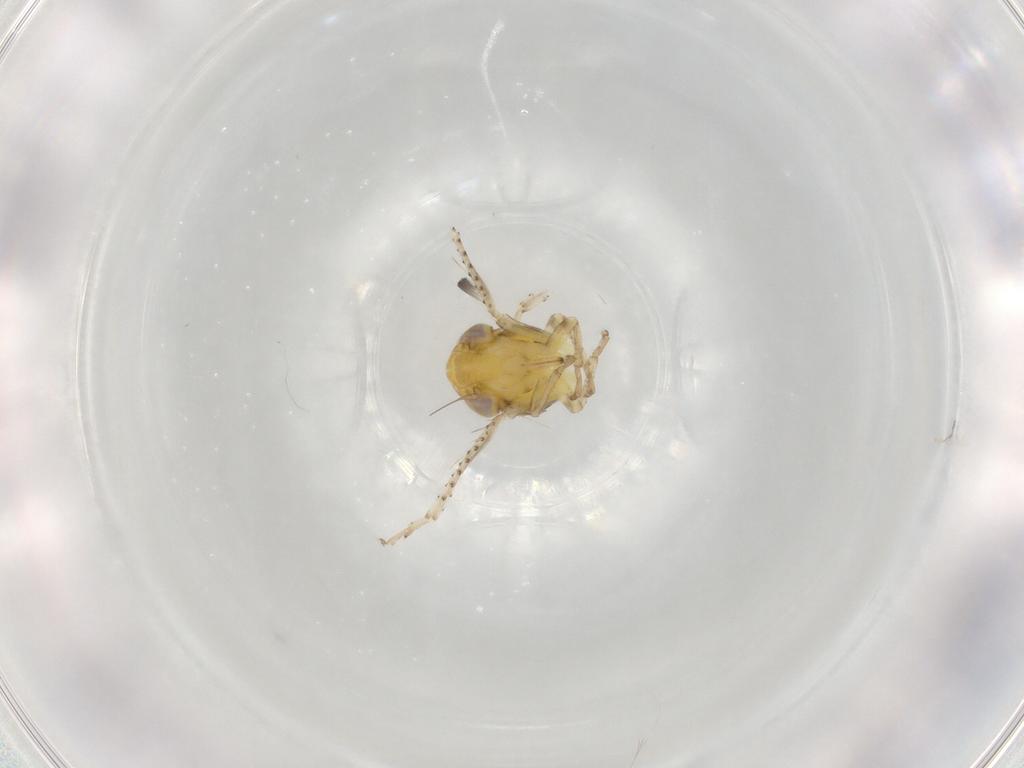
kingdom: Animalia
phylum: Arthropoda
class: Insecta
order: Hemiptera
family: Cicadellidae
